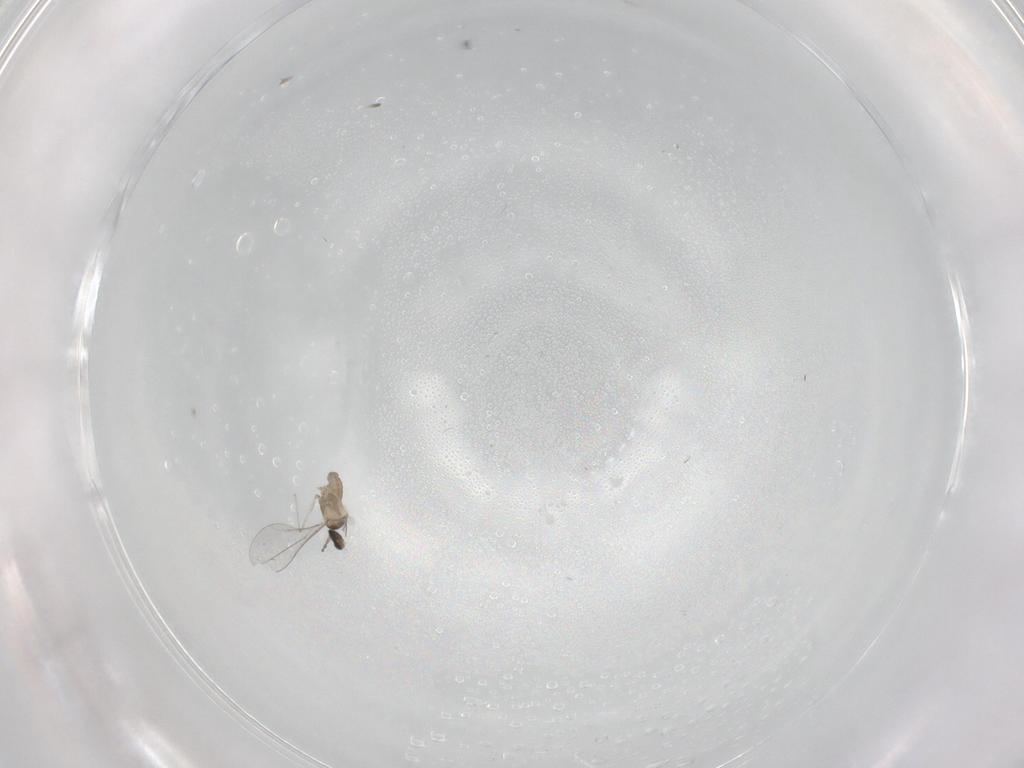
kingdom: Animalia
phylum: Arthropoda
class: Insecta
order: Diptera
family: Cecidomyiidae
